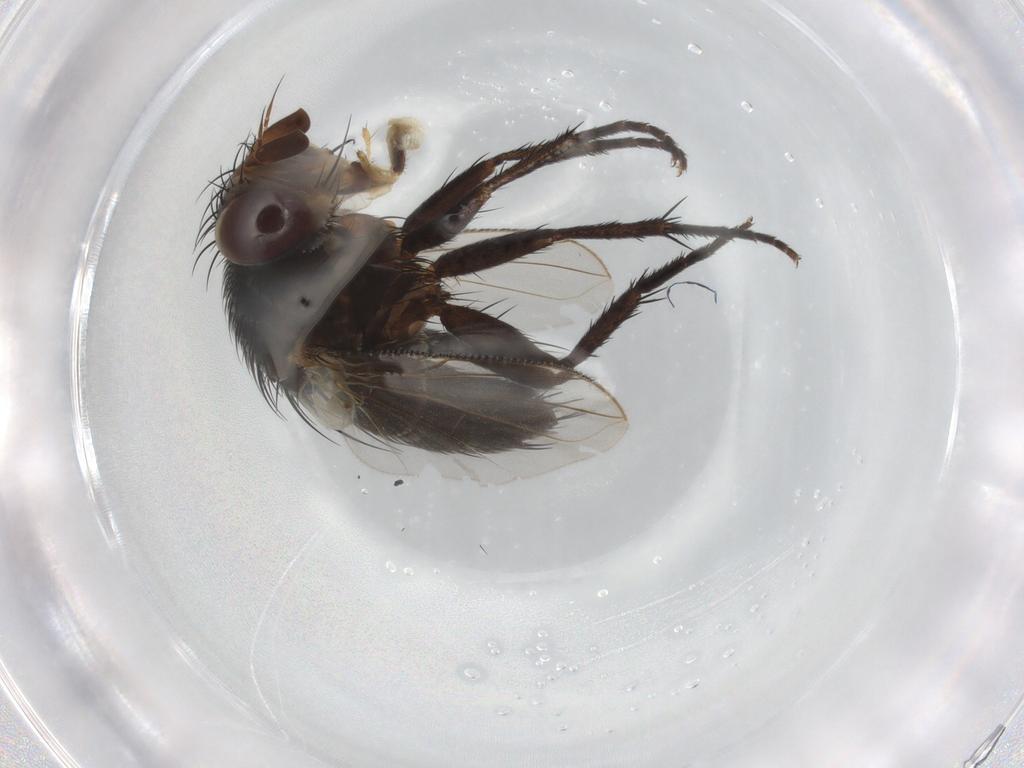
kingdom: Animalia
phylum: Arthropoda
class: Insecta
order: Diptera
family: Tachinidae
